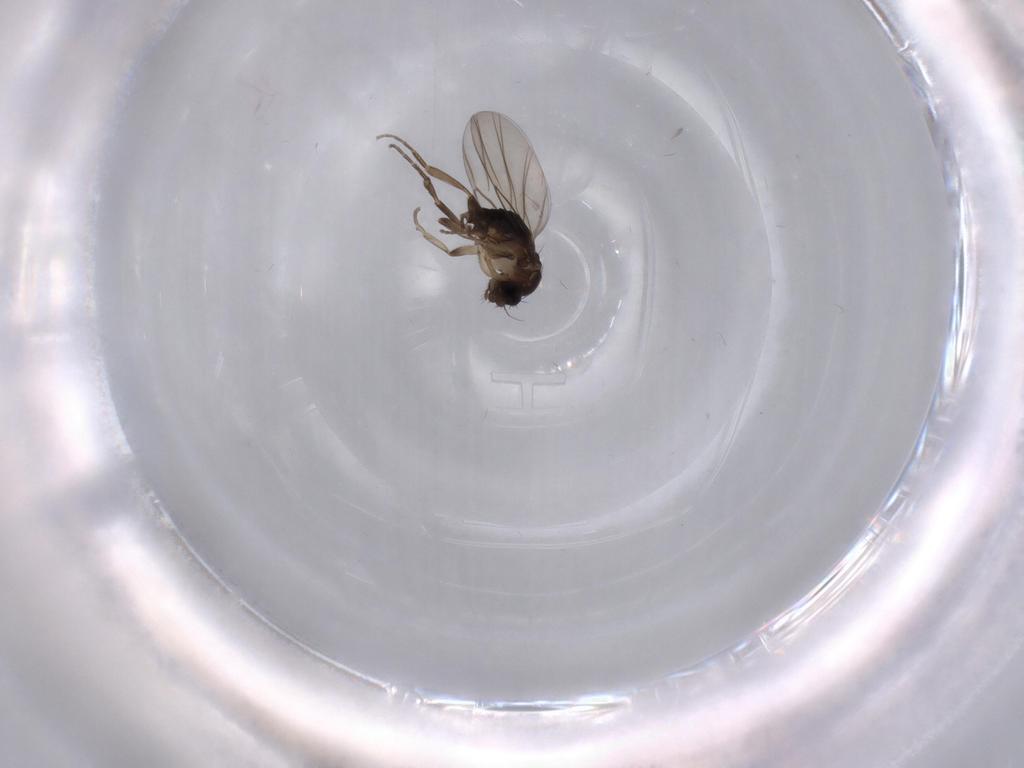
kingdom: Animalia
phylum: Arthropoda
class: Insecta
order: Diptera
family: Phoridae
